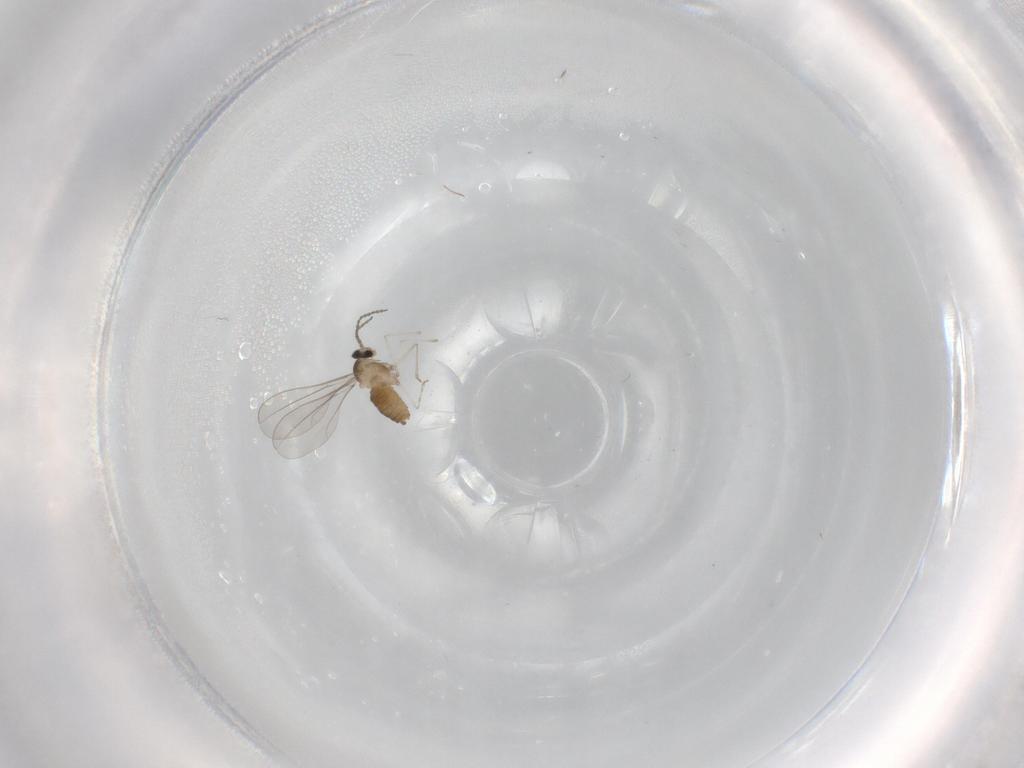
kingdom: Animalia
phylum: Arthropoda
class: Insecta
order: Diptera
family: Cecidomyiidae
